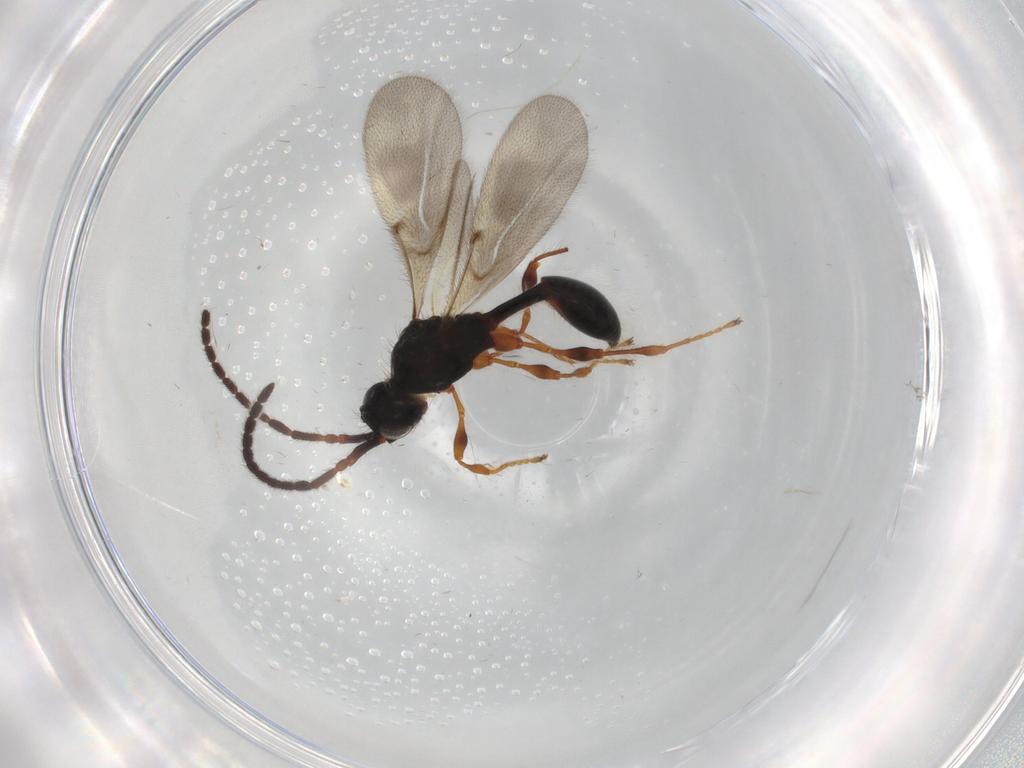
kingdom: Animalia
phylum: Arthropoda
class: Insecta
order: Hymenoptera
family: Diapriidae
